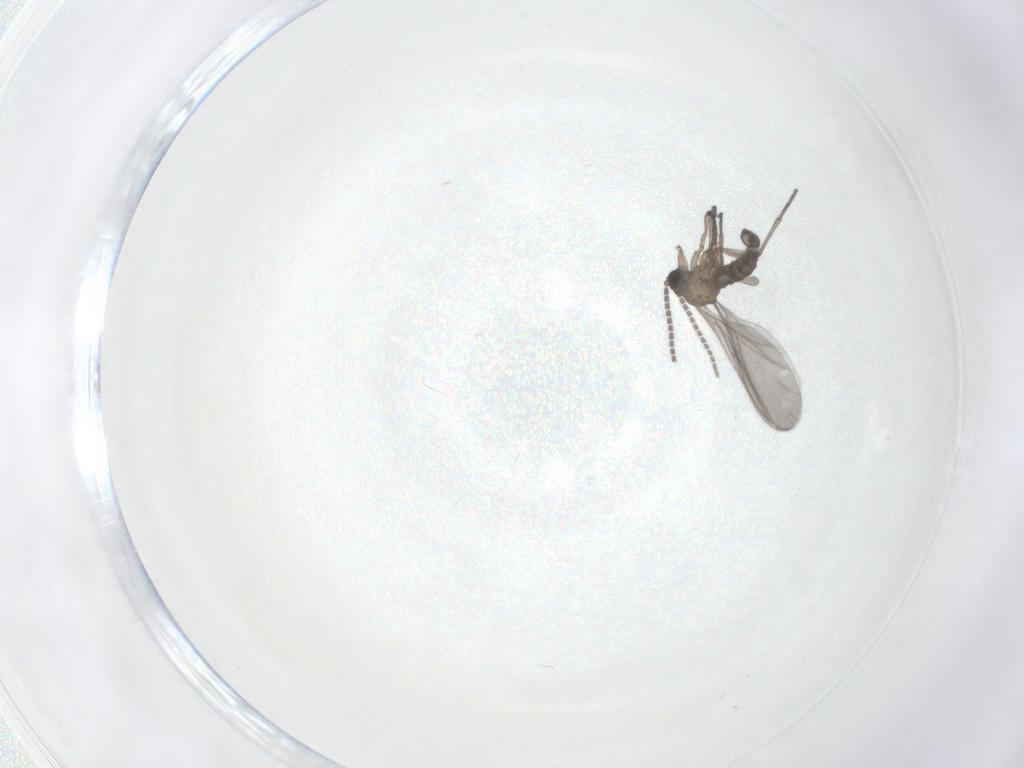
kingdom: Animalia
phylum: Arthropoda
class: Insecta
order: Diptera
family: Sciaridae
